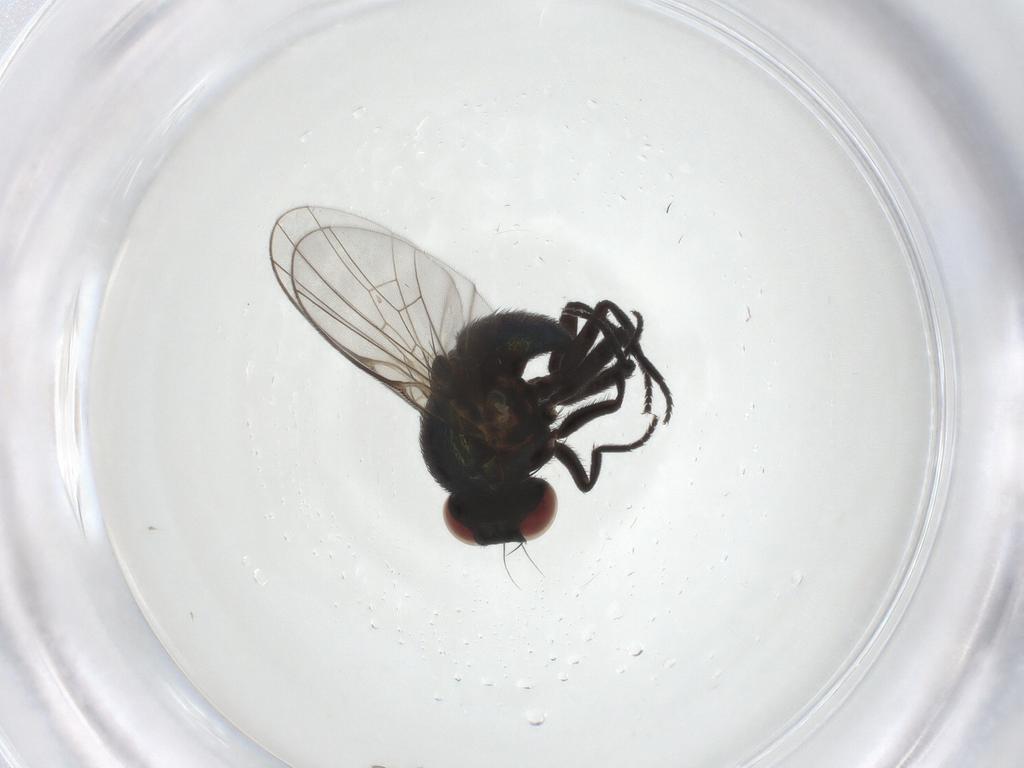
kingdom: Animalia
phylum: Arthropoda
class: Insecta
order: Diptera
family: Agromyzidae
